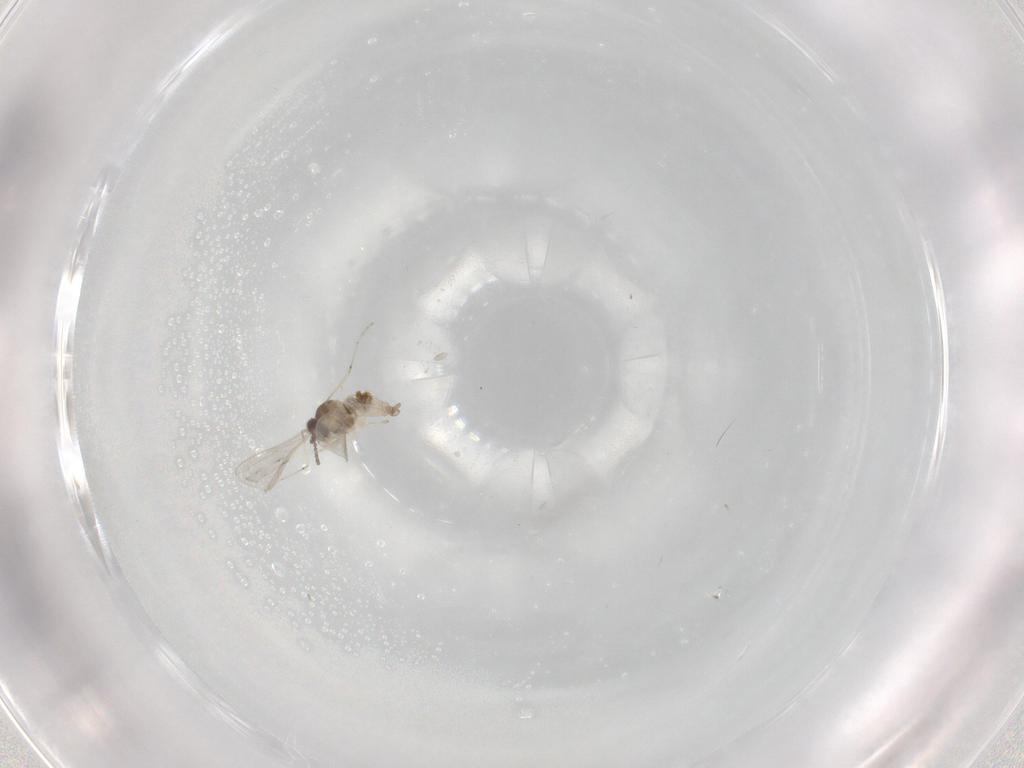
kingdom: Animalia
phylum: Arthropoda
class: Insecta
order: Diptera
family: Cecidomyiidae
